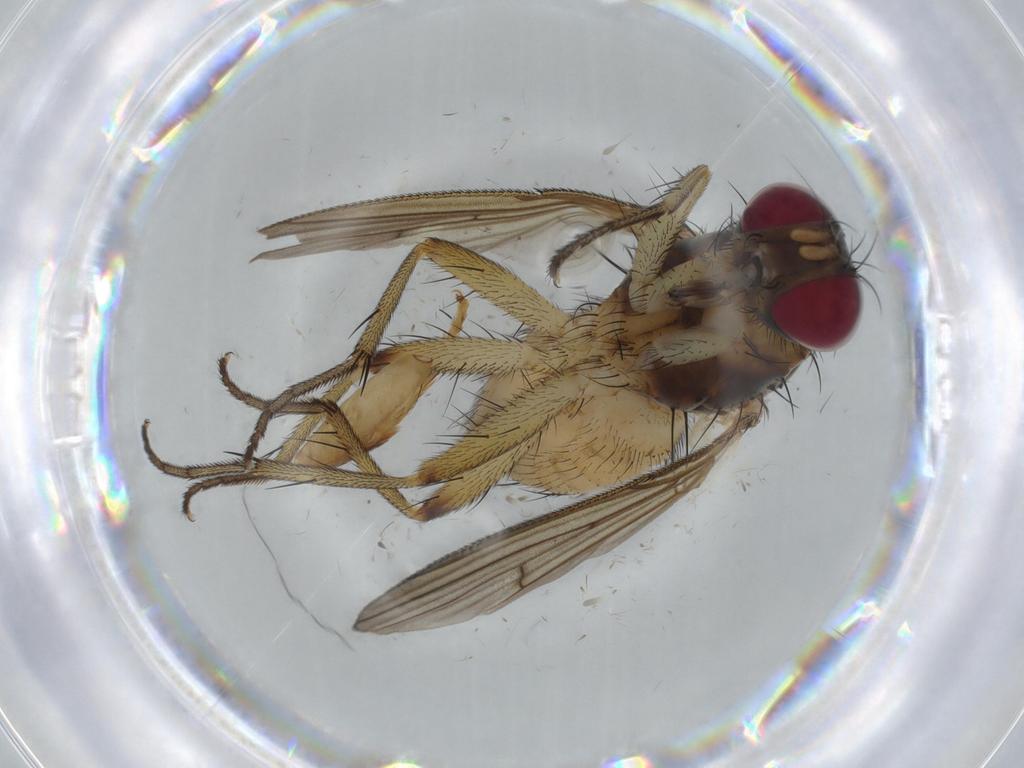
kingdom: Animalia
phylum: Arthropoda
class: Insecta
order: Diptera
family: Muscidae
